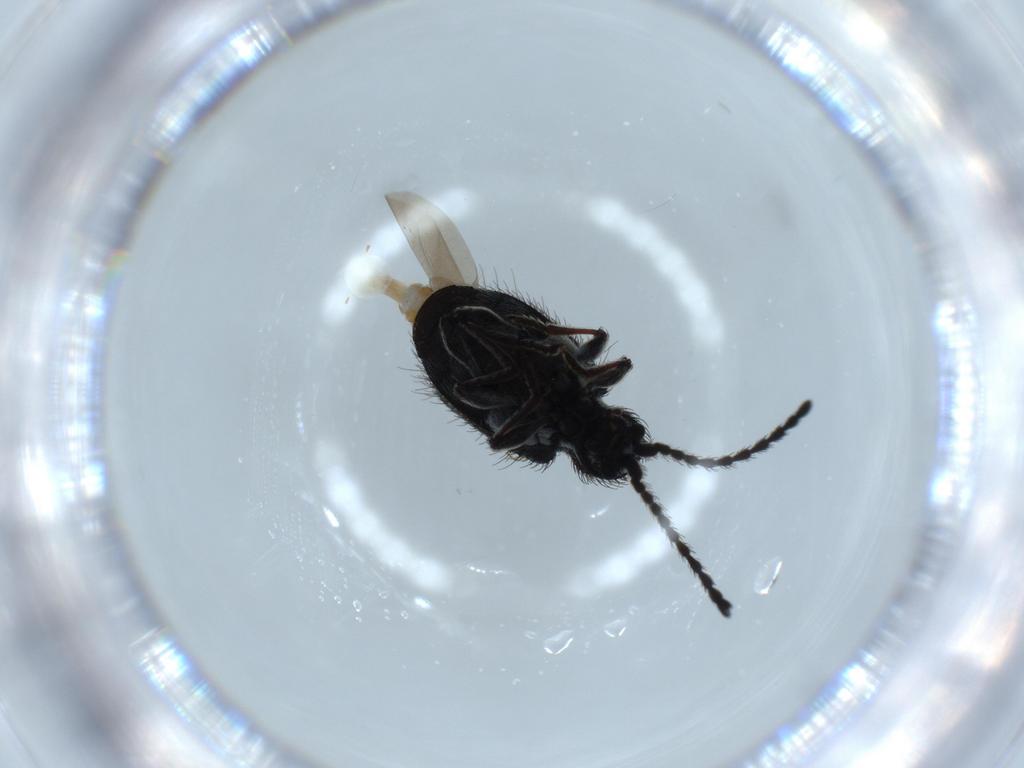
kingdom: Animalia
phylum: Arthropoda
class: Insecta
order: Coleoptera
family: Ptinidae
